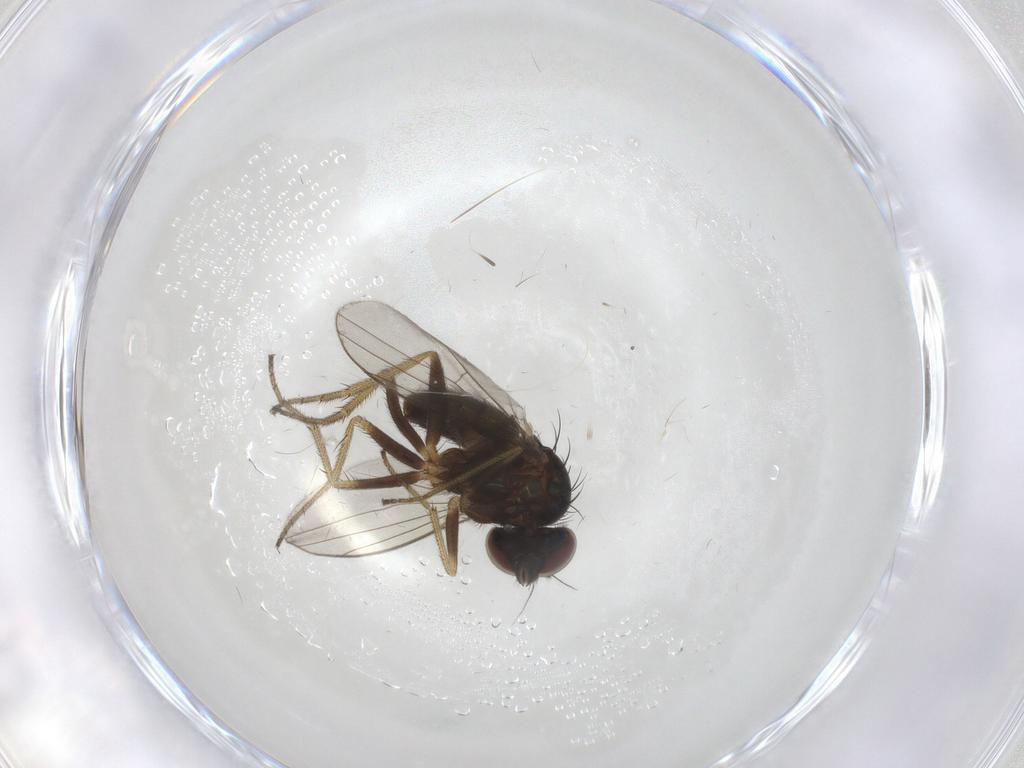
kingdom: Animalia
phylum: Arthropoda
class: Insecta
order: Diptera
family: Dolichopodidae
